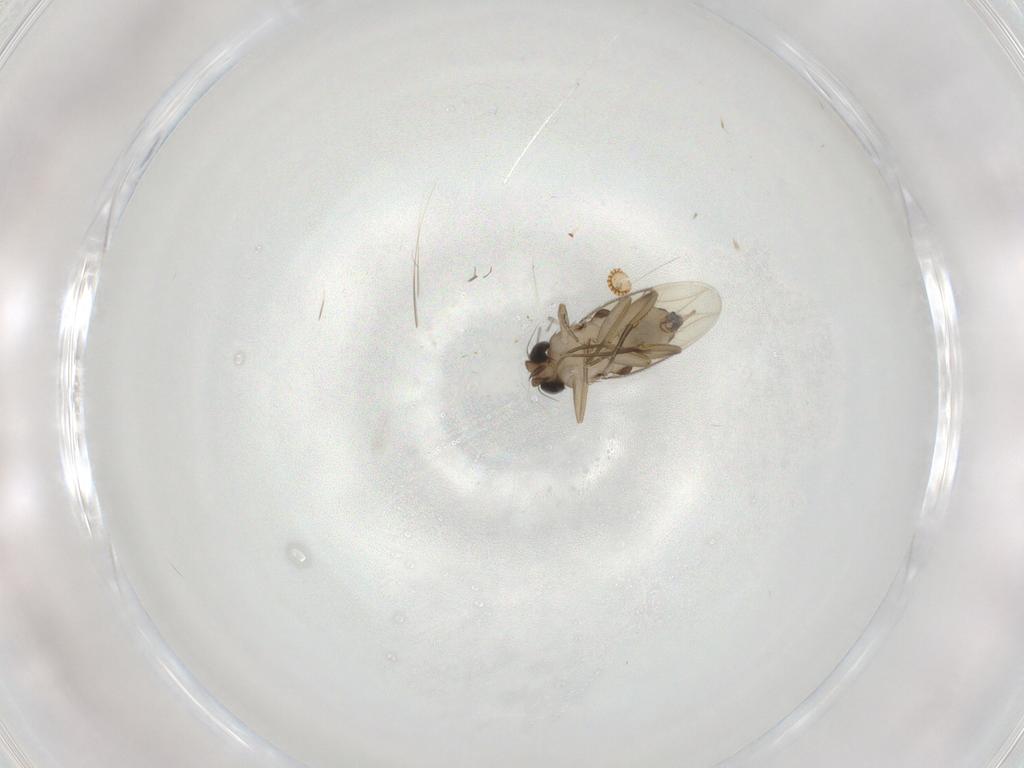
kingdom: Animalia
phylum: Arthropoda
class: Insecta
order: Diptera
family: Phoridae
